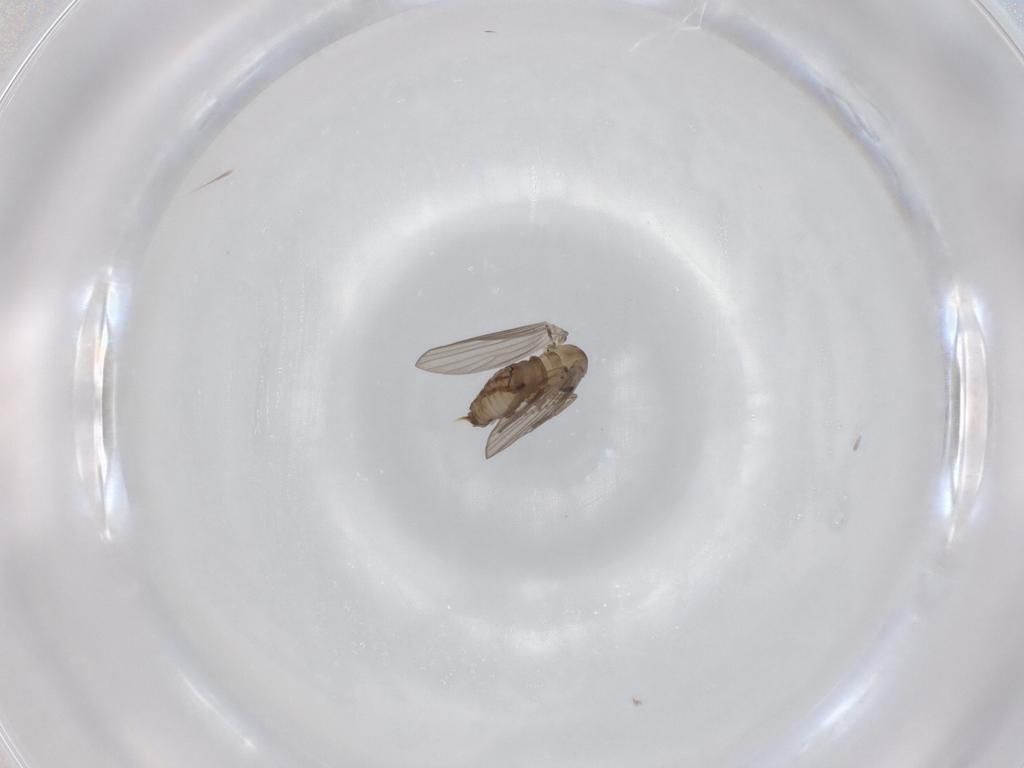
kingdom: Animalia
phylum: Arthropoda
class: Insecta
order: Diptera
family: Psychodidae
